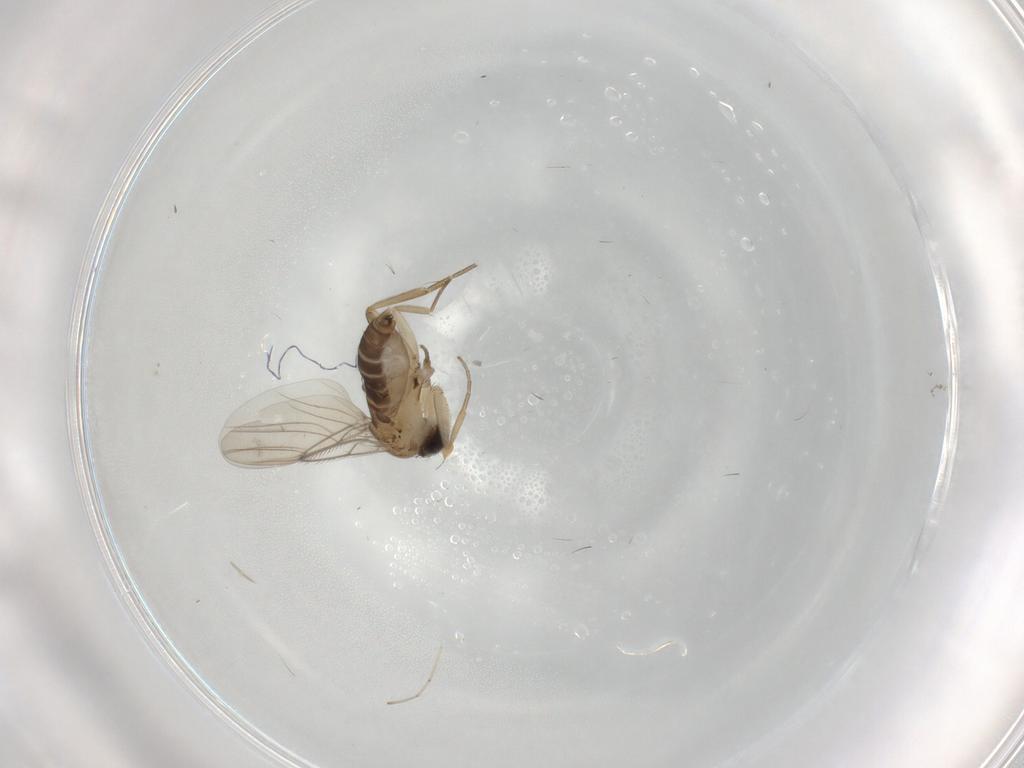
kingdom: Animalia
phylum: Arthropoda
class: Insecta
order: Diptera
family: Phoridae
